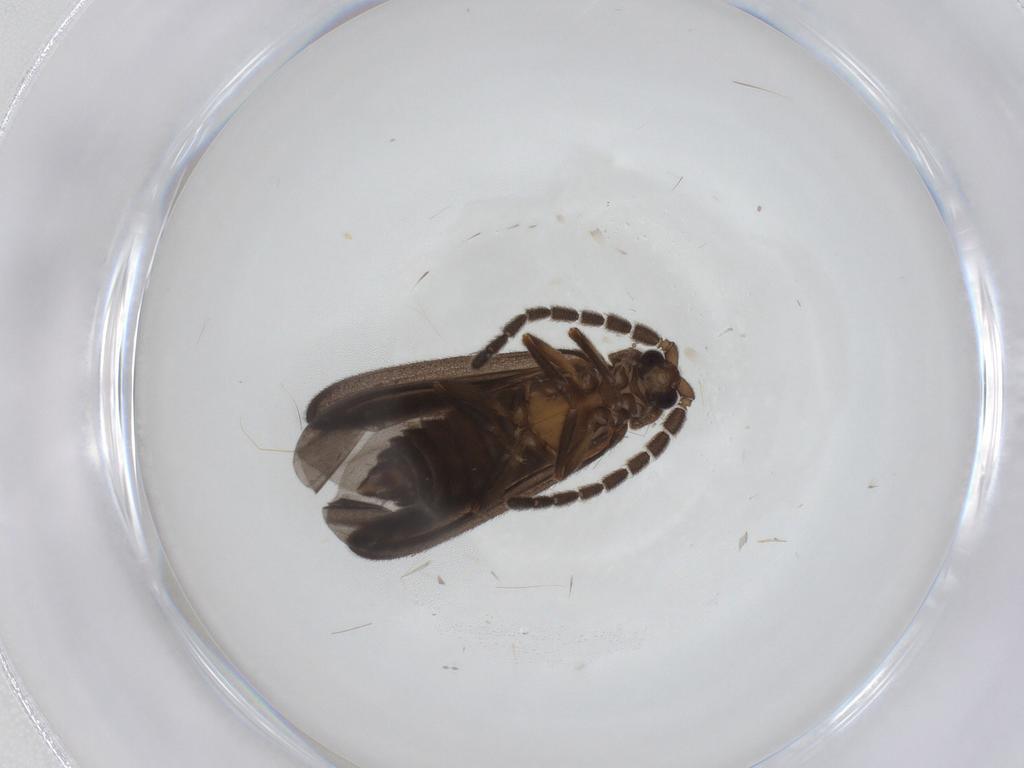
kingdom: Animalia
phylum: Arthropoda
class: Insecta
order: Coleoptera
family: Lycidae
